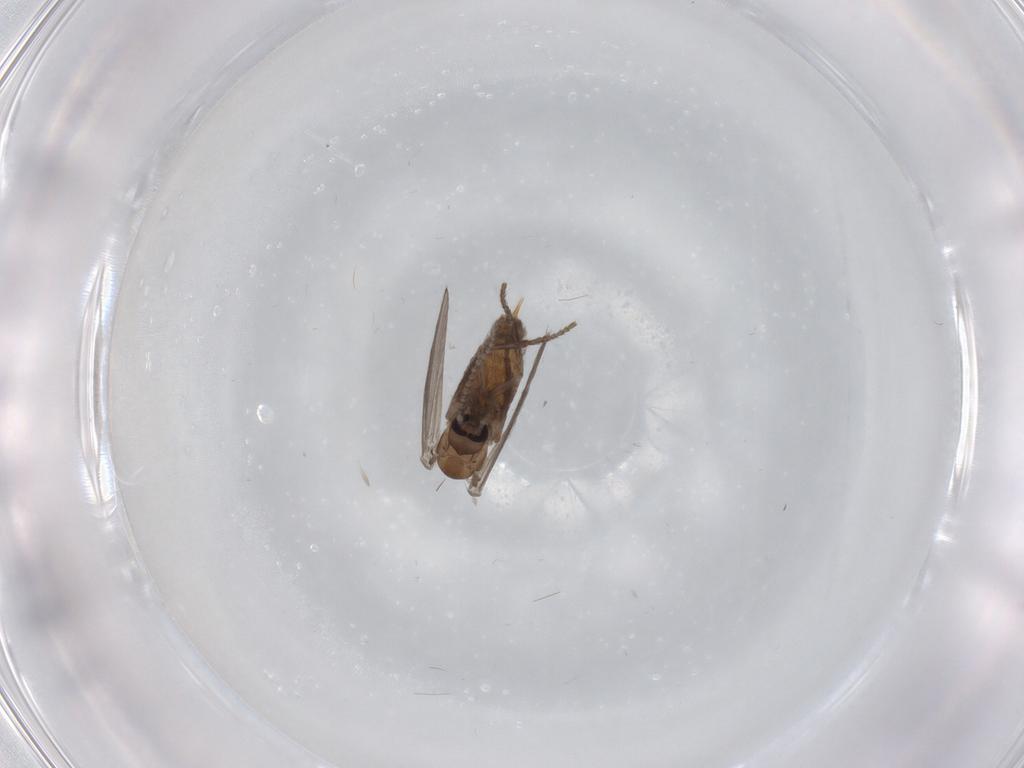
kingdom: Animalia
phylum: Arthropoda
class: Insecta
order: Diptera
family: Psychodidae
